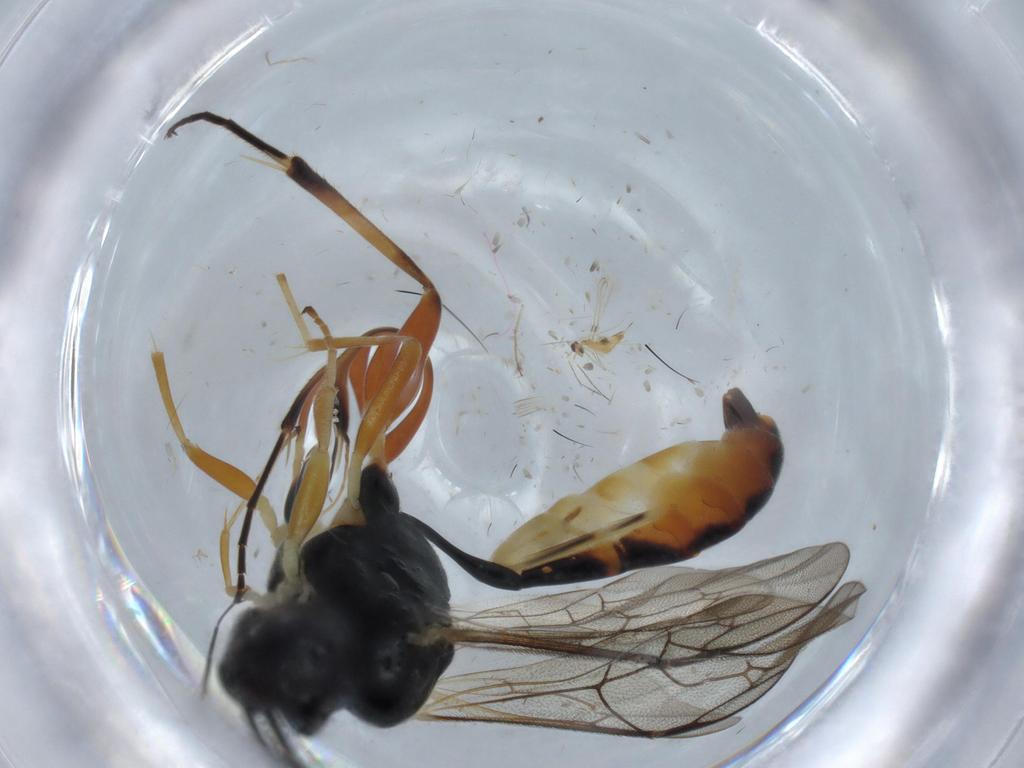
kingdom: Animalia
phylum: Arthropoda
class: Insecta
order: Hymenoptera
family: Ichneumonidae
